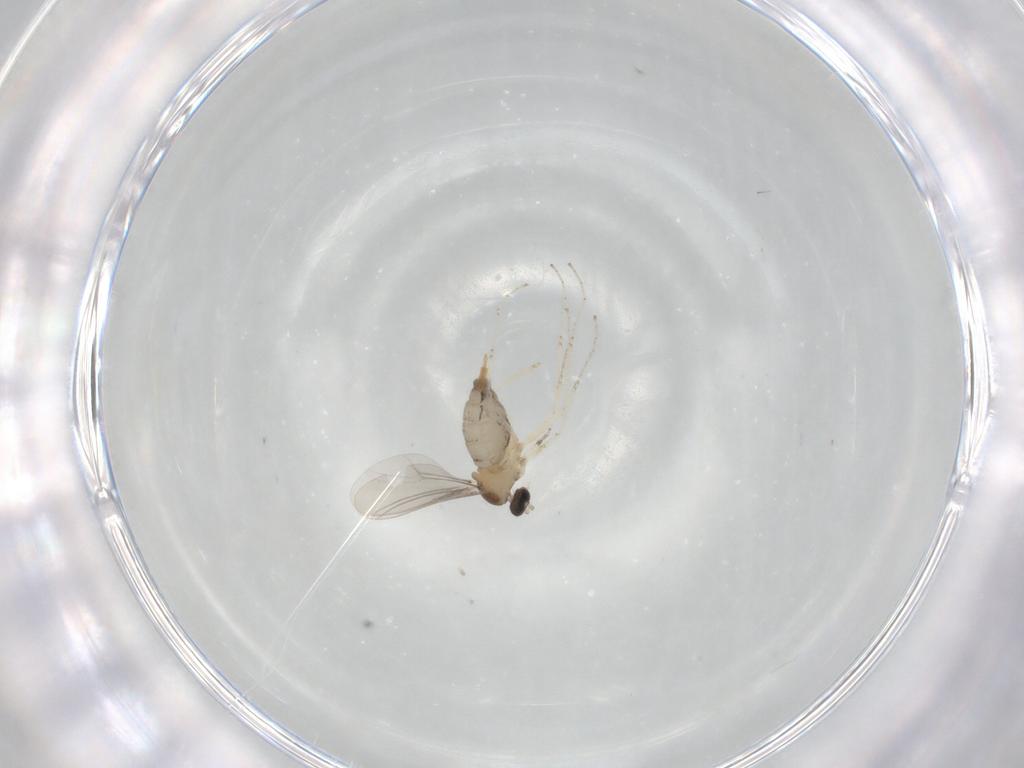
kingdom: Animalia
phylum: Arthropoda
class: Insecta
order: Diptera
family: Cecidomyiidae
